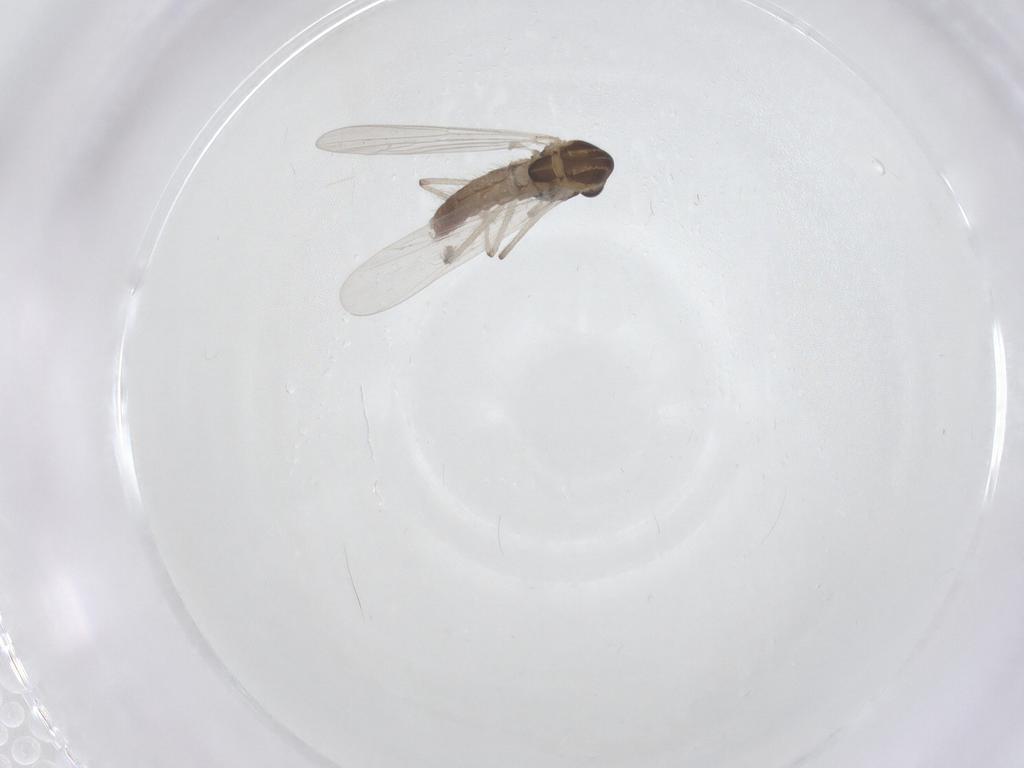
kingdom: Animalia
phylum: Arthropoda
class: Insecta
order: Diptera
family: Chironomidae
